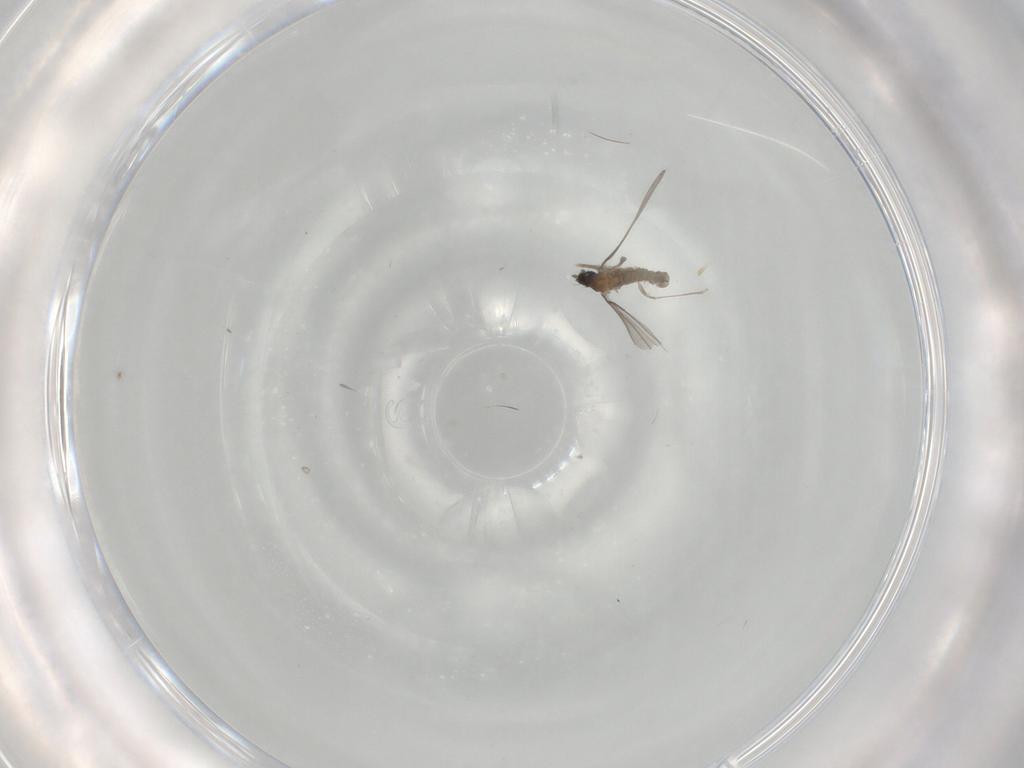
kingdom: Animalia
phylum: Arthropoda
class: Insecta
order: Diptera
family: Cecidomyiidae
